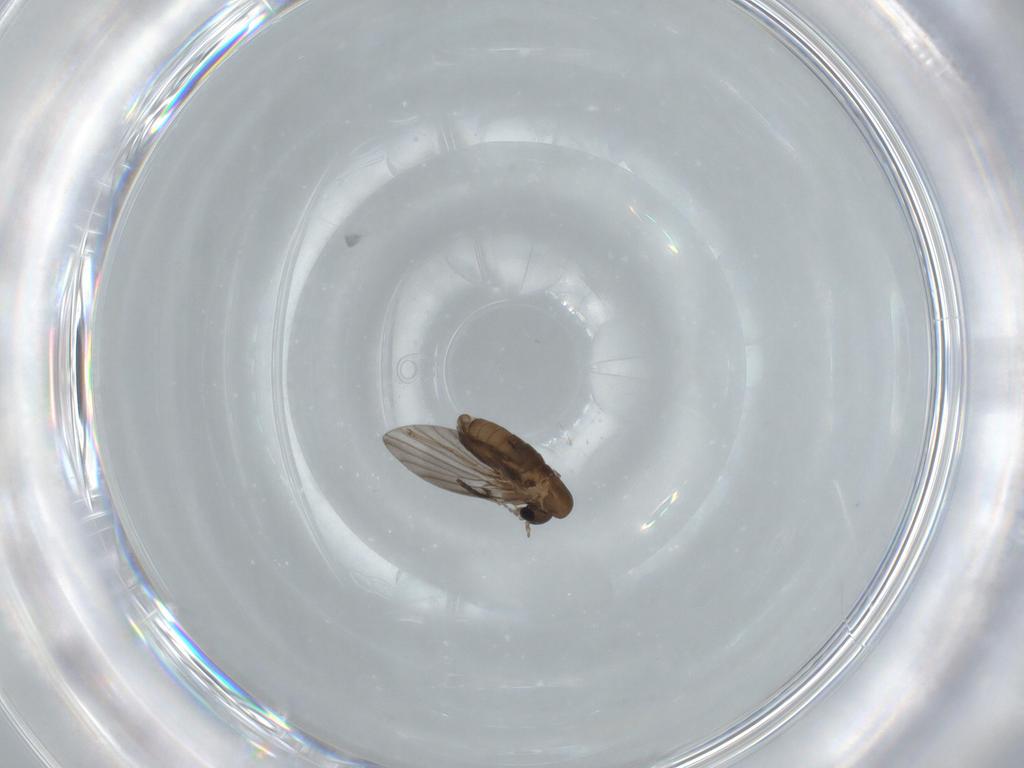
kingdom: Animalia
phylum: Arthropoda
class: Insecta
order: Diptera
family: Psychodidae
